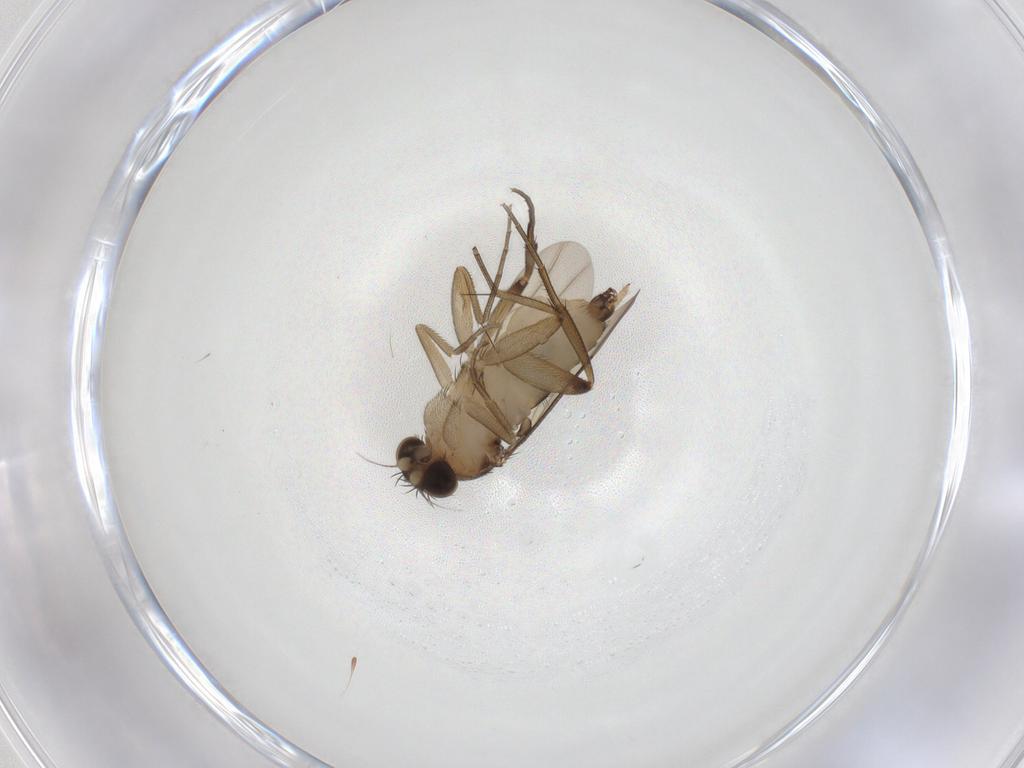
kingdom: Animalia
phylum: Arthropoda
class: Insecta
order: Diptera
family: Phoridae
